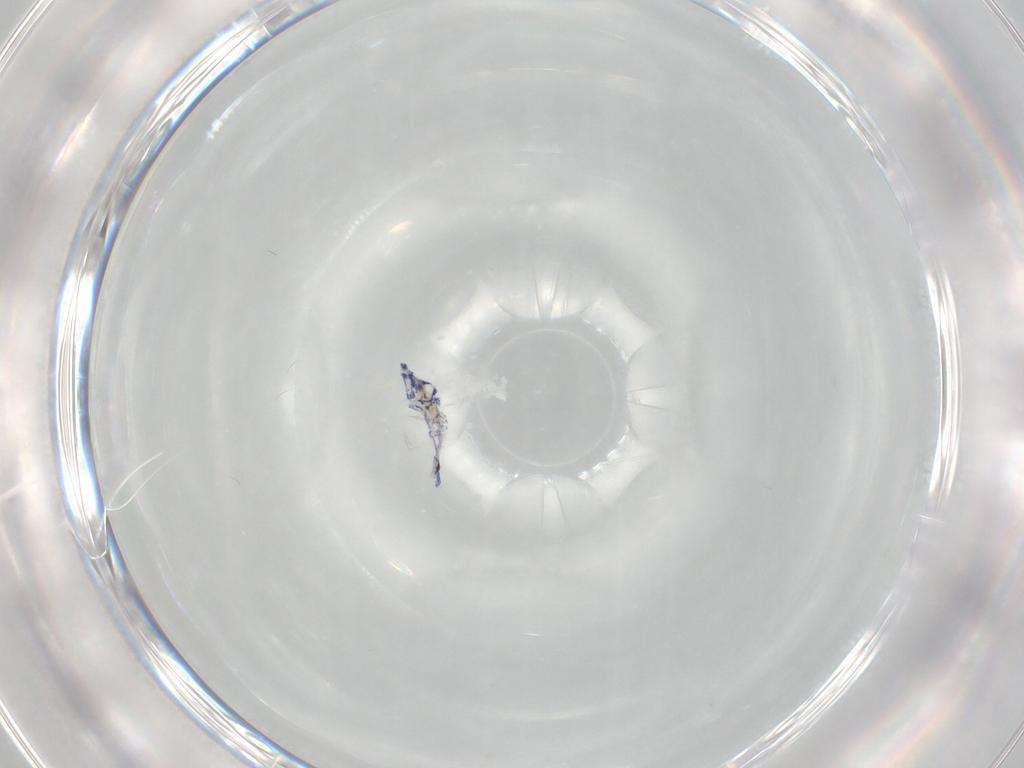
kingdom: Animalia
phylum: Arthropoda
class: Collembola
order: Entomobryomorpha
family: Entomobryidae
